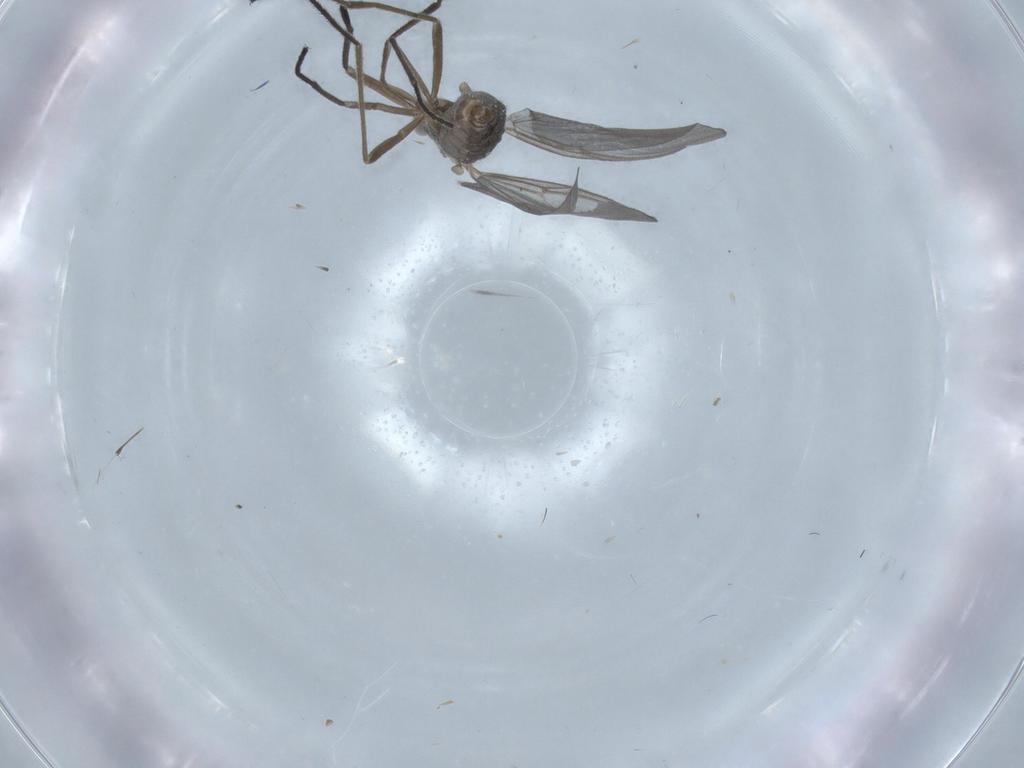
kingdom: Animalia
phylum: Arthropoda
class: Insecta
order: Diptera
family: Cecidomyiidae
